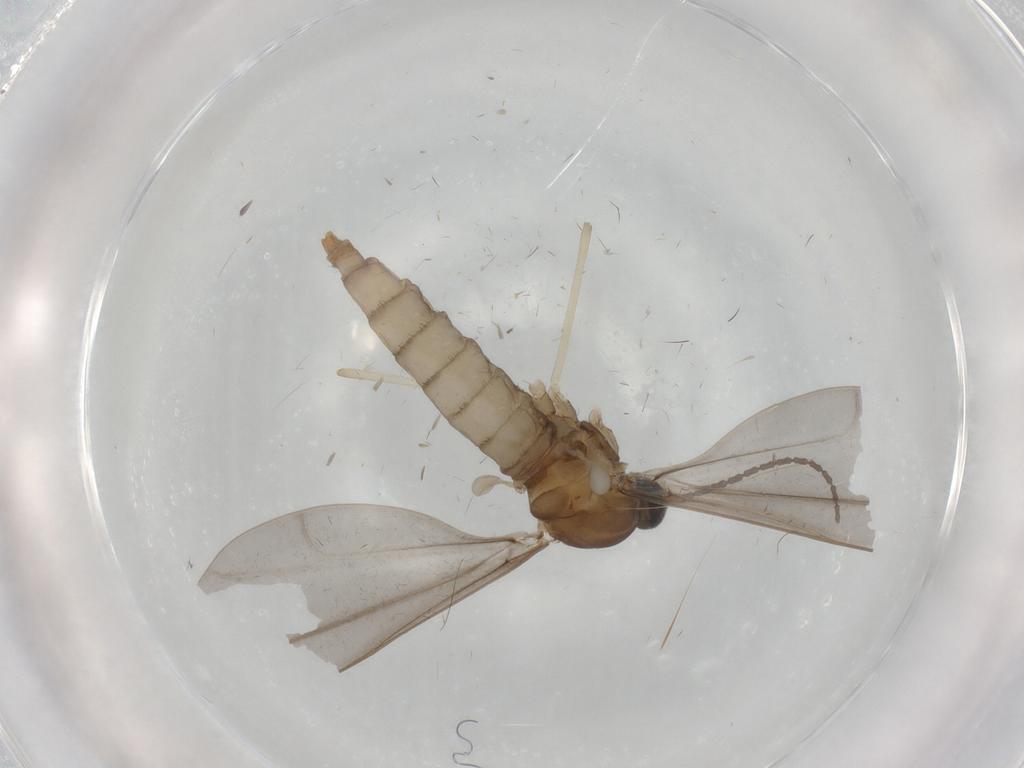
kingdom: Animalia
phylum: Arthropoda
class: Insecta
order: Diptera
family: Cecidomyiidae
